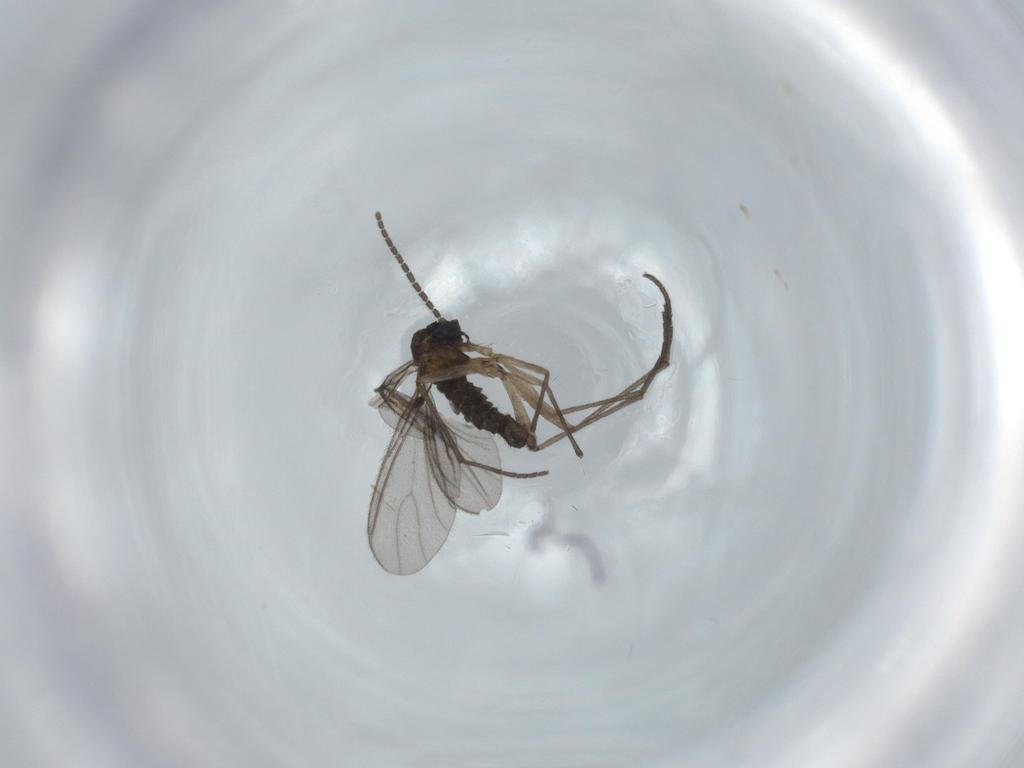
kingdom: Animalia
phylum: Arthropoda
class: Insecta
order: Diptera
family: Sciaridae
